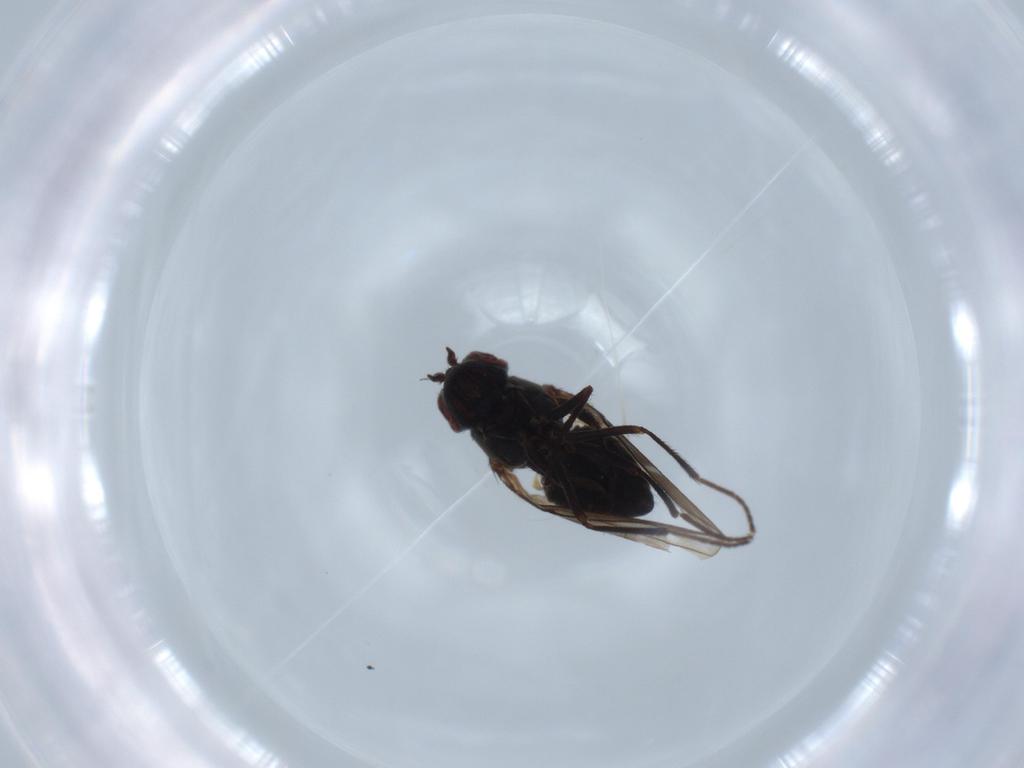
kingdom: Animalia
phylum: Arthropoda
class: Insecta
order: Diptera
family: Ephydridae
